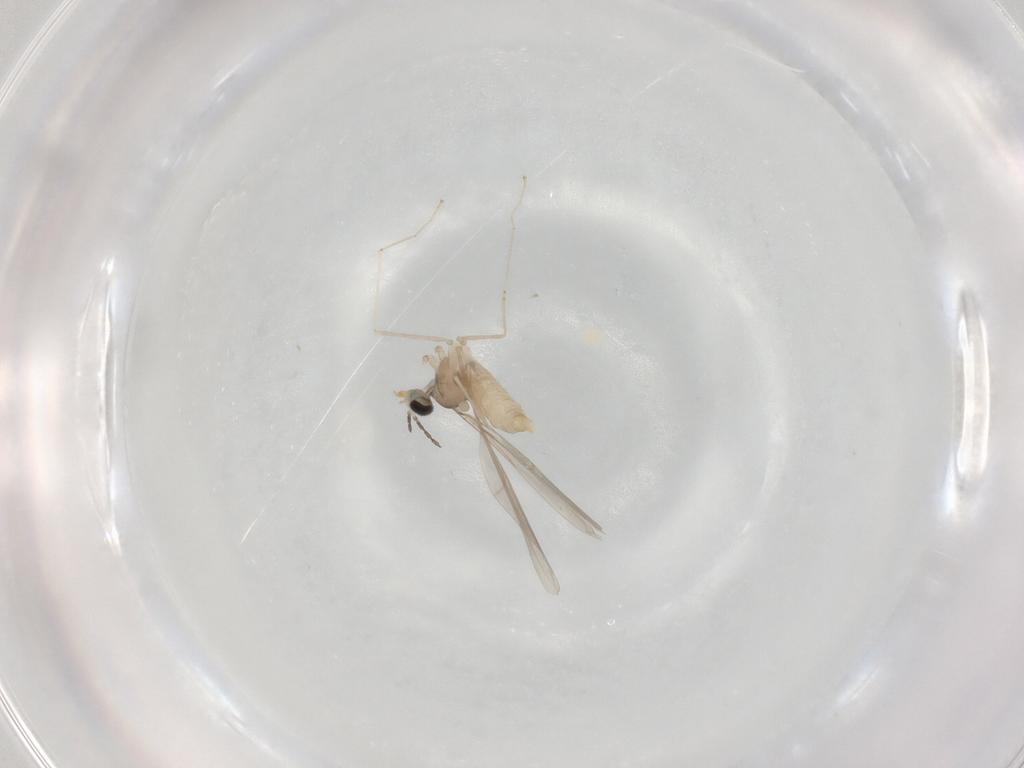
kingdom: Animalia
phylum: Arthropoda
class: Insecta
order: Diptera
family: Cecidomyiidae
